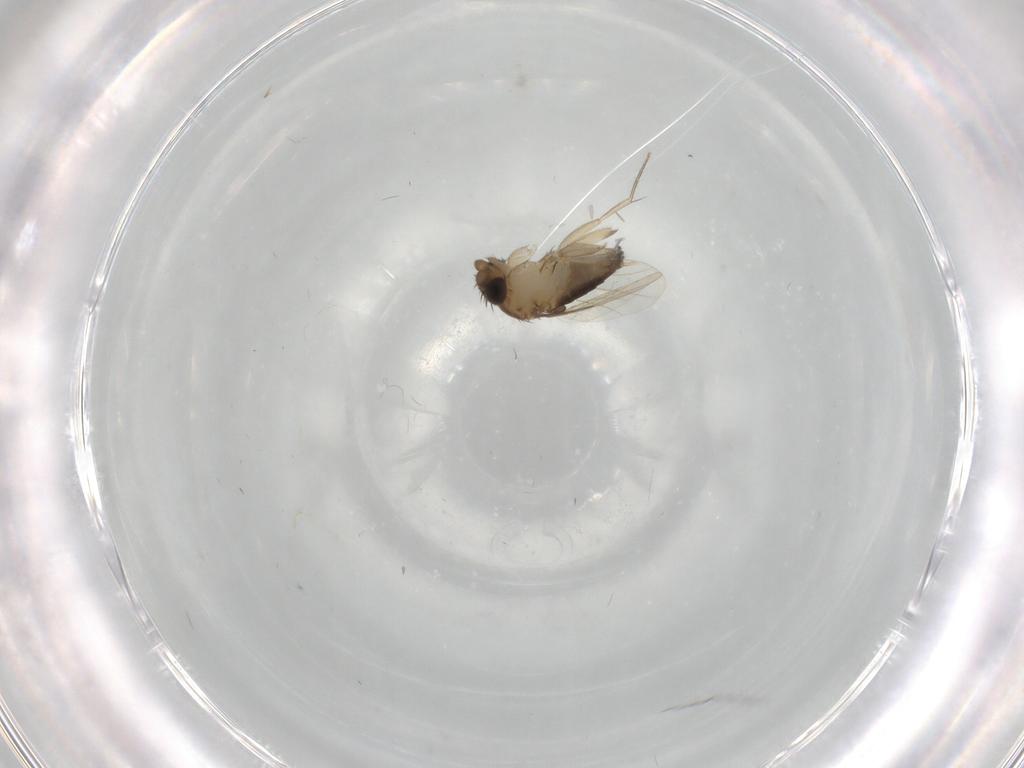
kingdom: Animalia
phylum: Arthropoda
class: Insecta
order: Diptera
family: Phoridae
